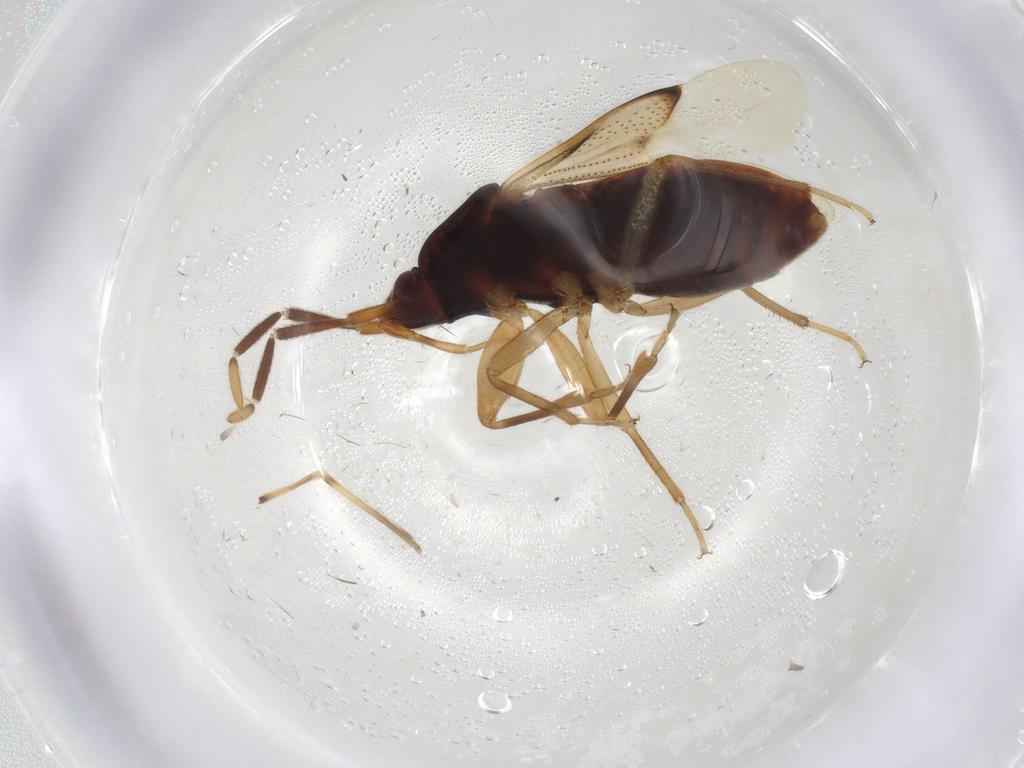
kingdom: Animalia
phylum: Arthropoda
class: Insecta
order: Hemiptera
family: Rhyparochromidae
